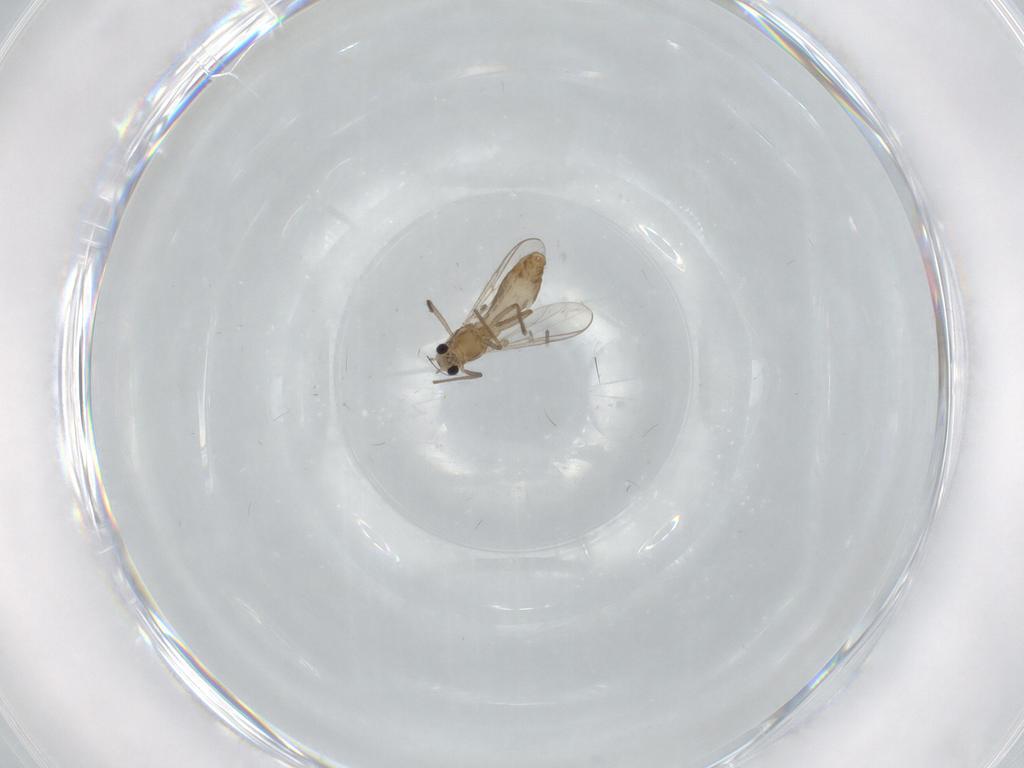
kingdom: Animalia
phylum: Arthropoda
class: Insecta
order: Diptera
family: Chironomidae
